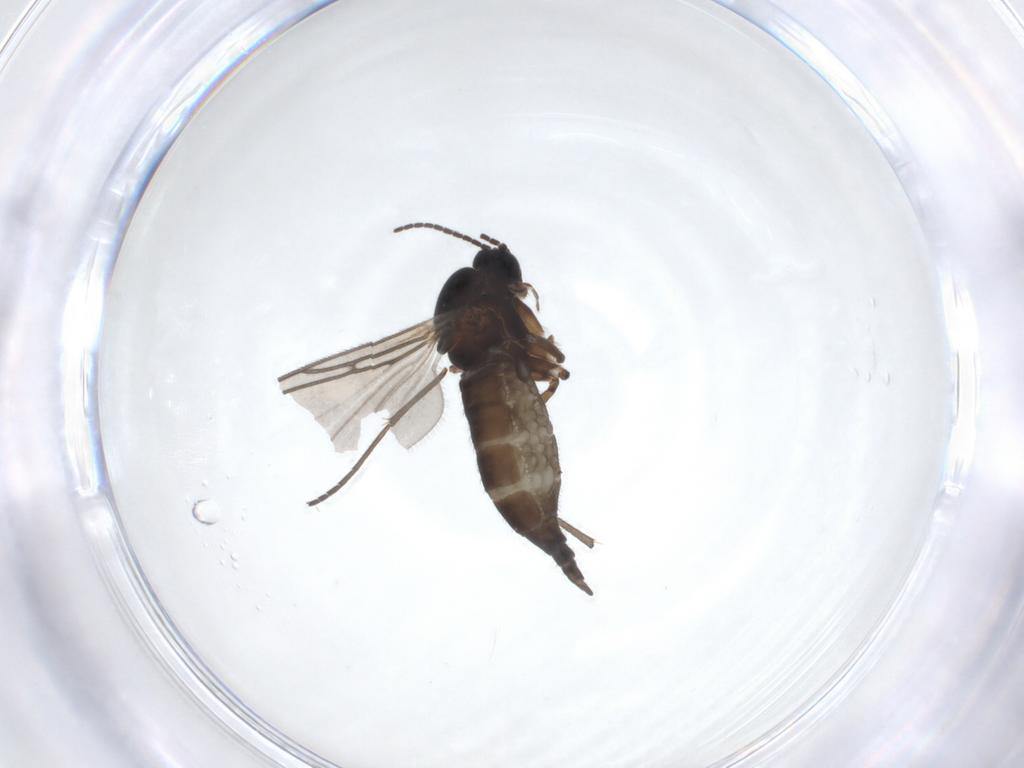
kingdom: Animalia
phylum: Arthropoda
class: Insecta
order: Diptera
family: Sciaridae
